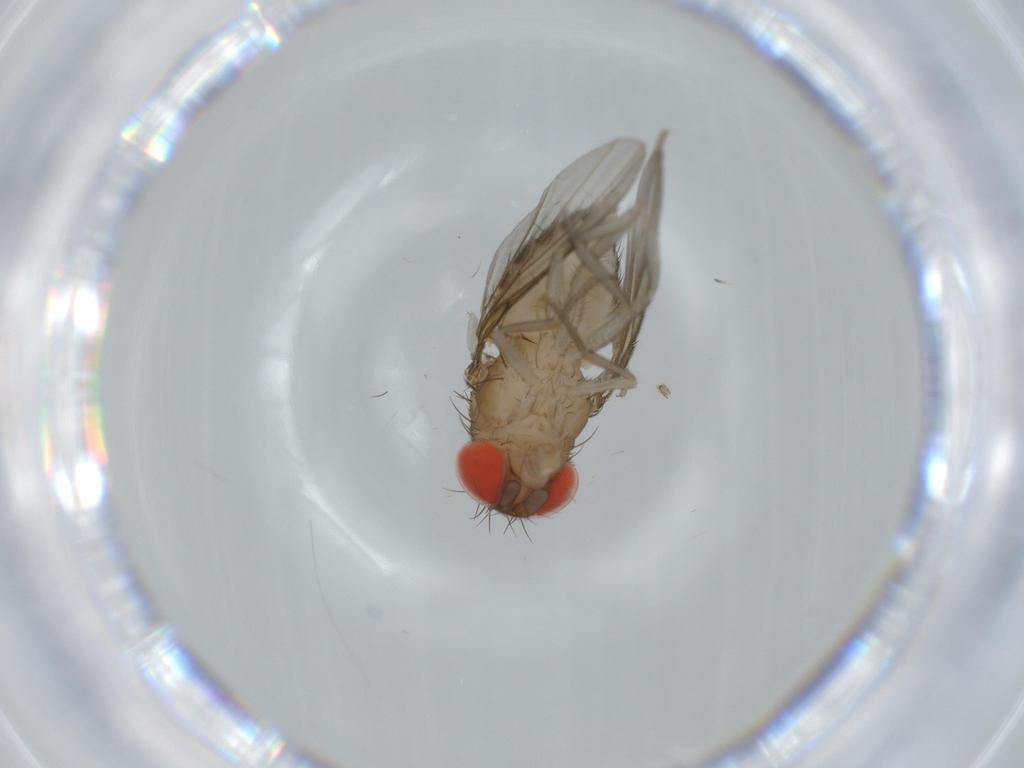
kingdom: Animalia
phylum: Arthropoda
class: Insecta
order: Diptera
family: Drosophilidae
